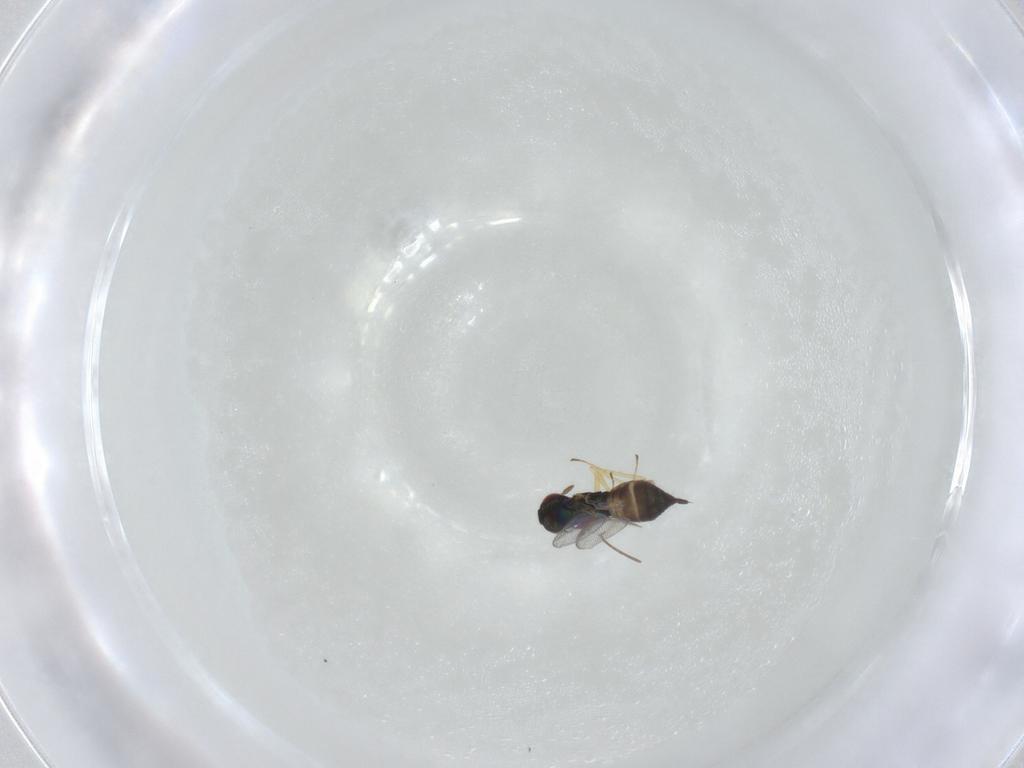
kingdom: Animalia
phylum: Arthropoda
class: Insecta
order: Hymenoptera
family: Eulophidae
